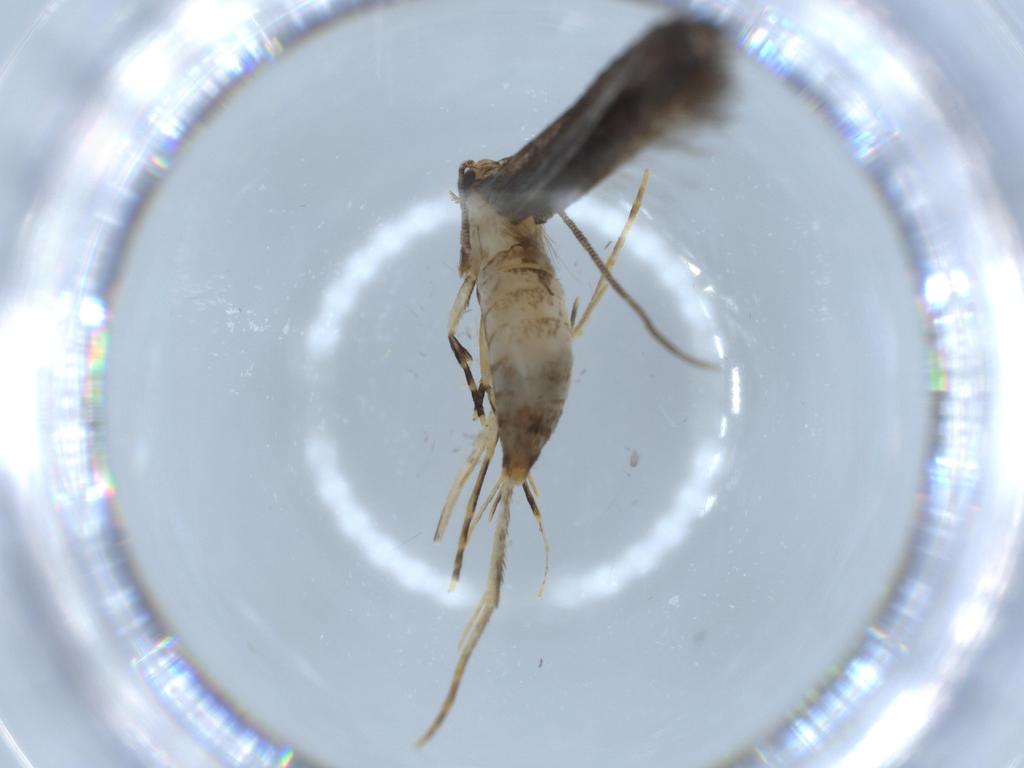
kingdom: Animalia
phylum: Arthropoda
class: Insecta
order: Lepidoptera
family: Meessiidae
